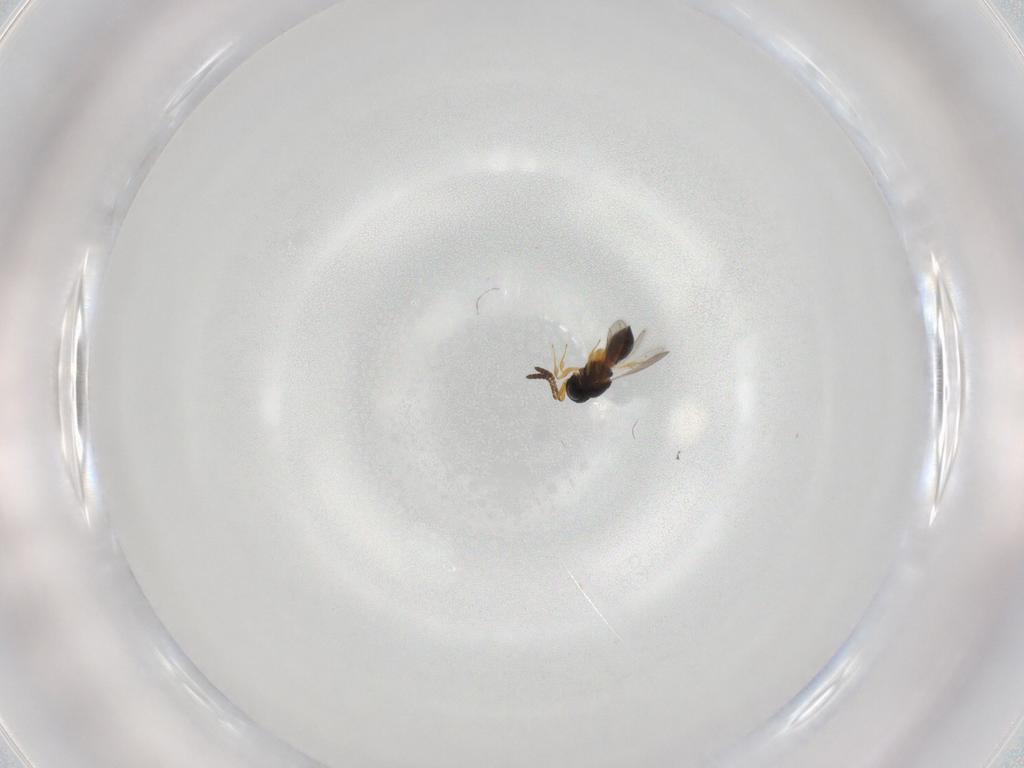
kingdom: Animalia
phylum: Arthropoda
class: Insecta
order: Hymenoptera
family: Scelionidae
